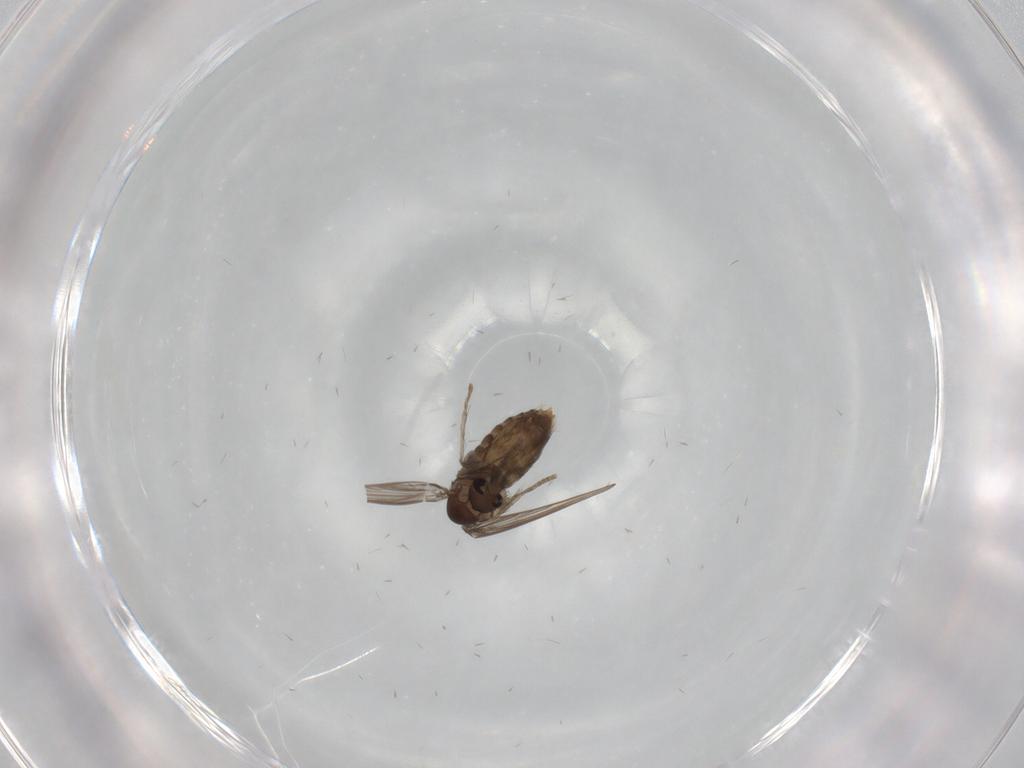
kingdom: Animalia
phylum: Arthropoda
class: Insecta
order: Diptera
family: Psychodidae
